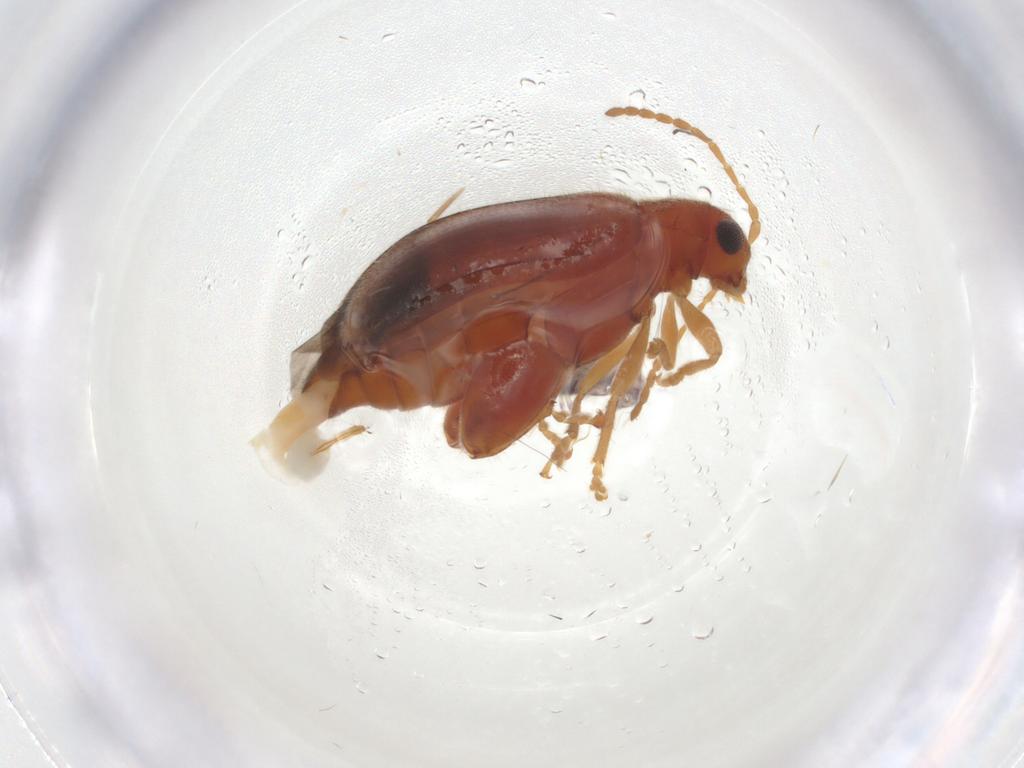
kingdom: Animalia
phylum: Arthropoda
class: Insecta
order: Coleoptera
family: Chrysomelidae
